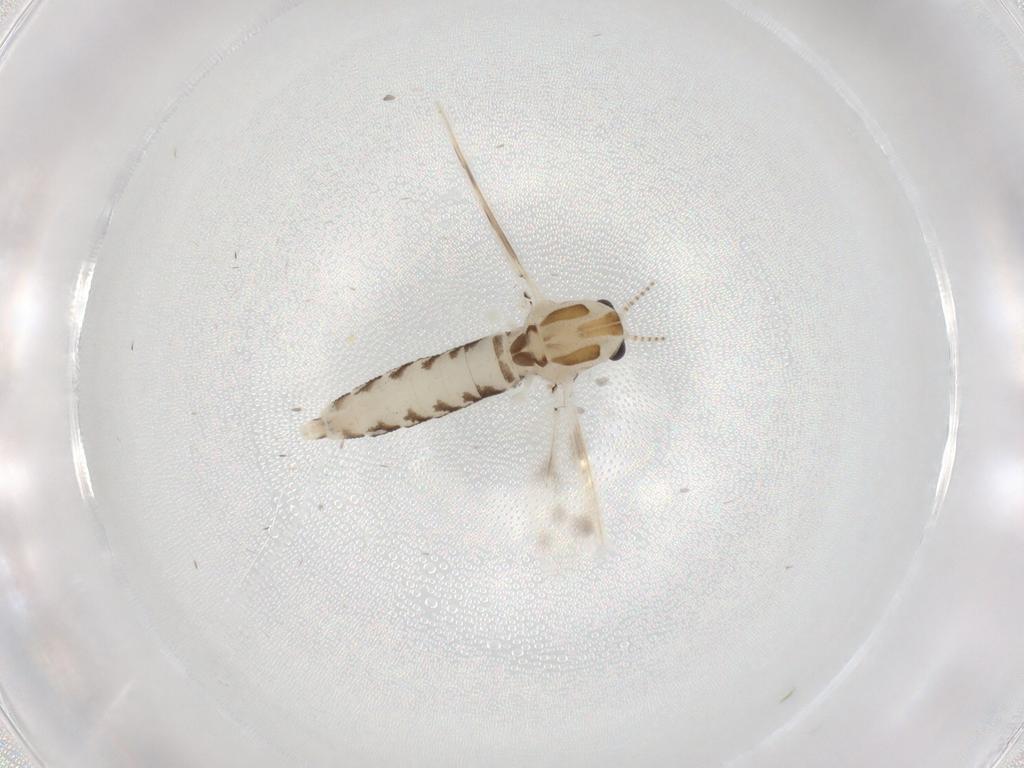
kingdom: Animalia
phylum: Arthropoda
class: Insecta
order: Diptera
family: Corethrellidae
